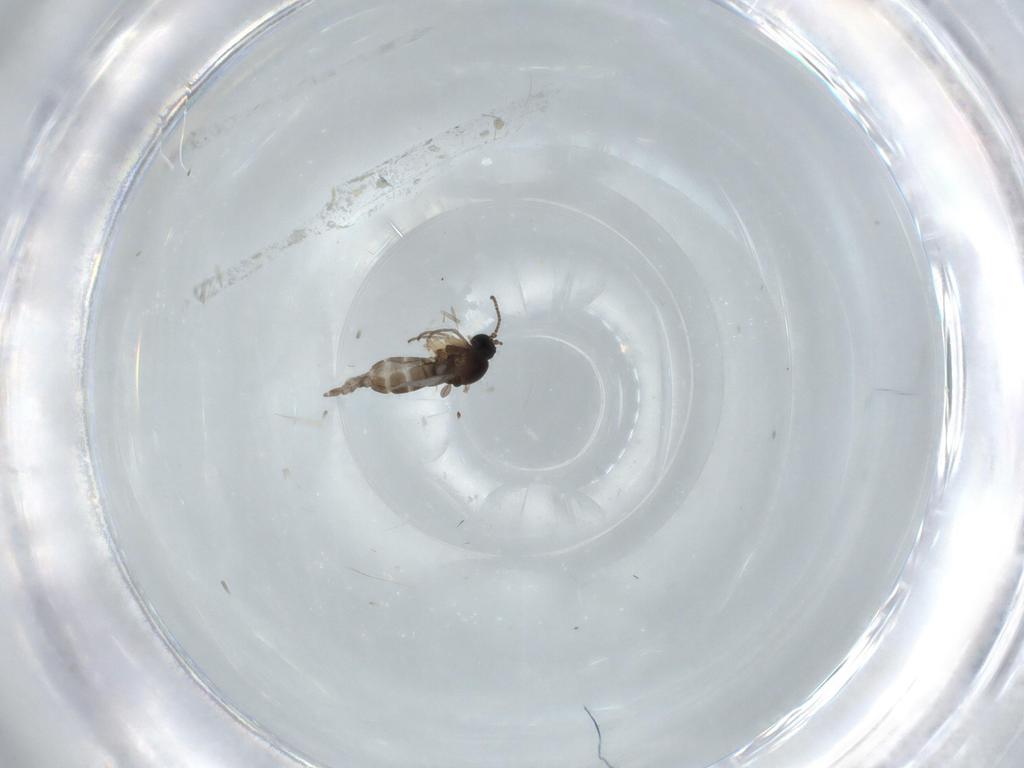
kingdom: Animalia
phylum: Arthropoda
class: Insecta
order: Diptera
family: Sciaridae
